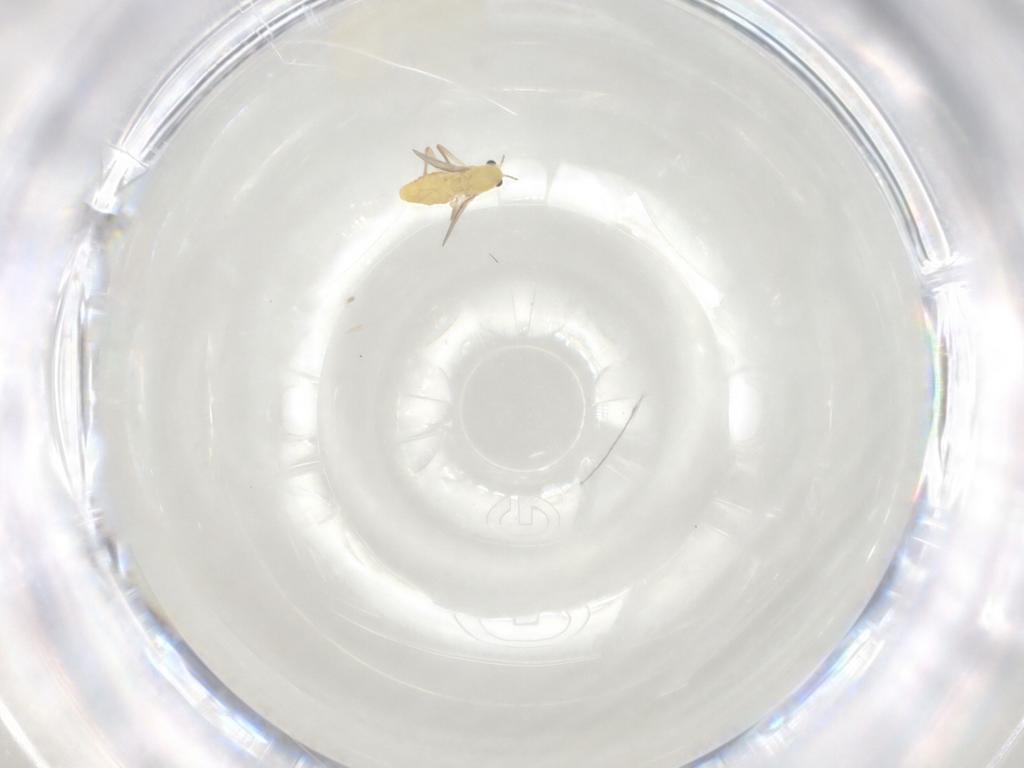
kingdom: Animalia
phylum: Arthropoda
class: Insecta
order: Diptera
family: Chironomidae
